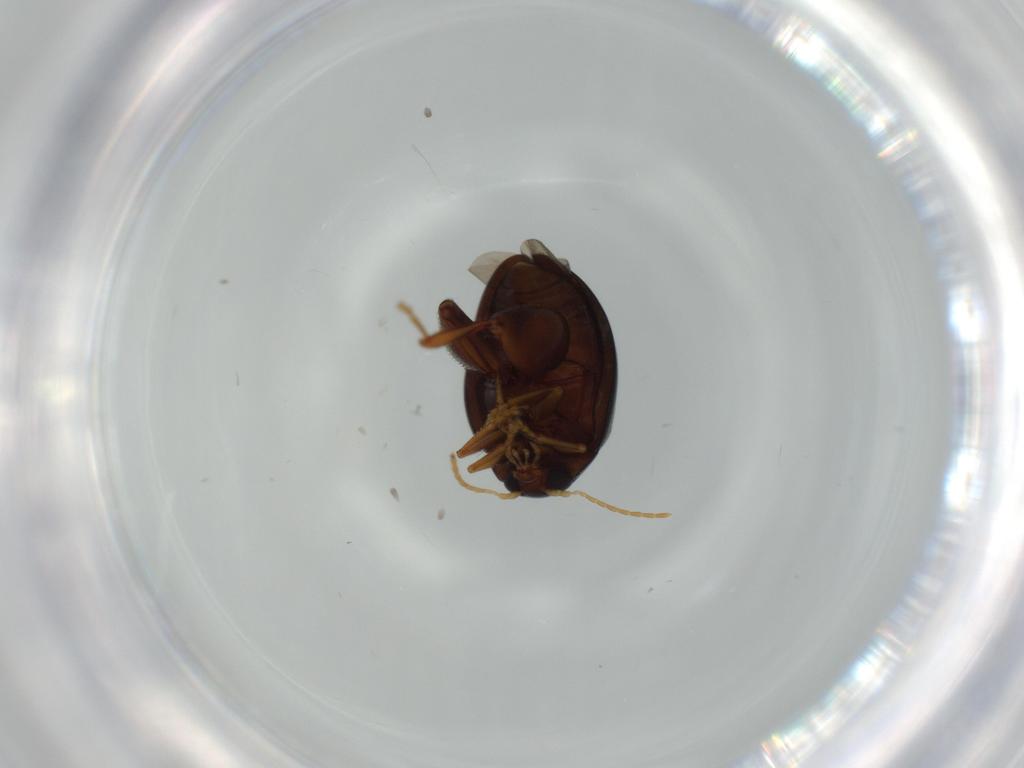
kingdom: Animalia
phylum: Arthropoda
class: Insecta
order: Coleoptera
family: Chrysomelidae
